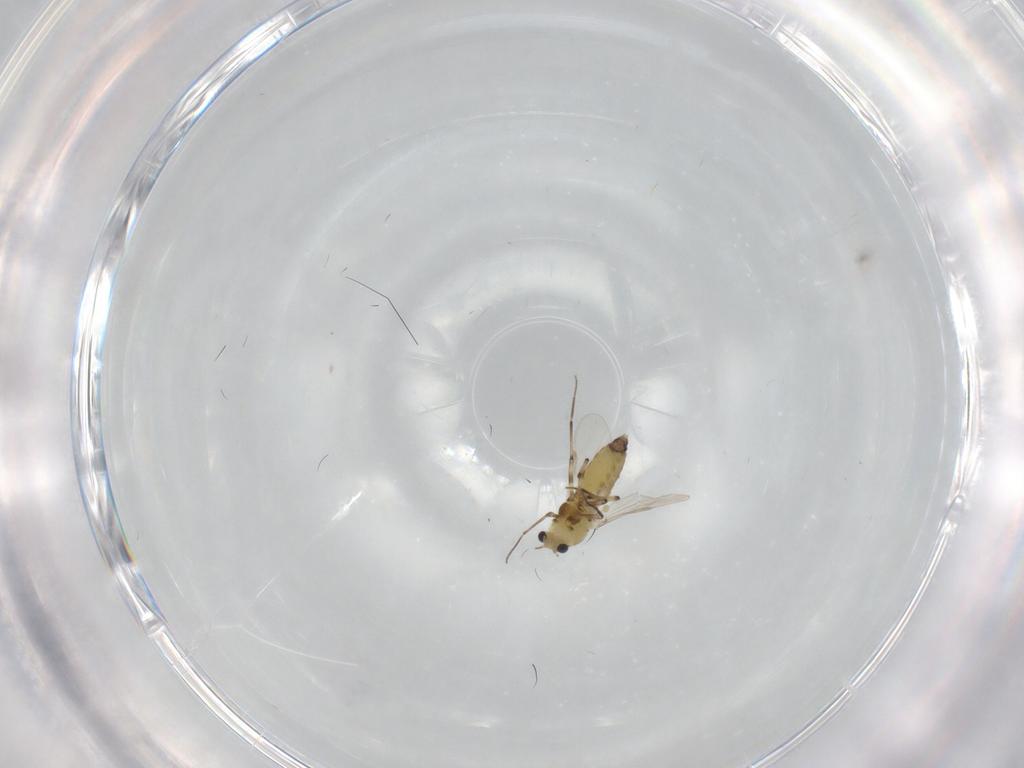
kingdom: Animalia
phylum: Arthropoda
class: Insecta
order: Diptera
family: Chironomidae
